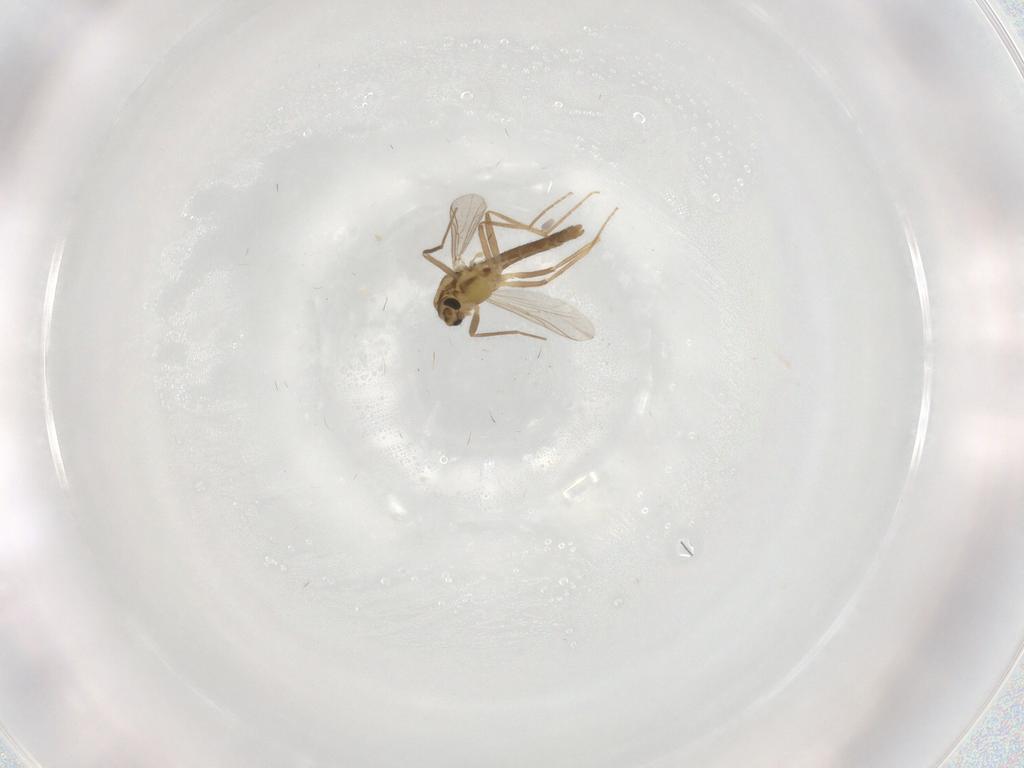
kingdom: Animalia
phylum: Arthropoda
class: Insecta
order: Diptera
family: Cecidomyiidae
